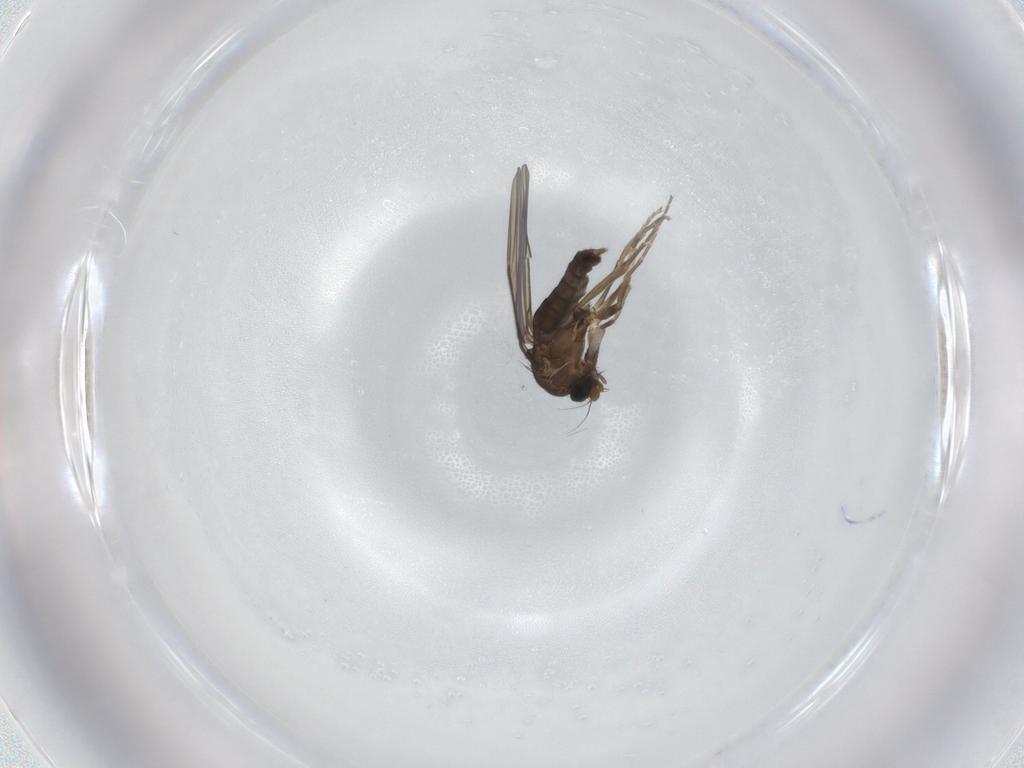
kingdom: Animalia
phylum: Arthropoda
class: Insecta
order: Diptera
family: Phoridae
